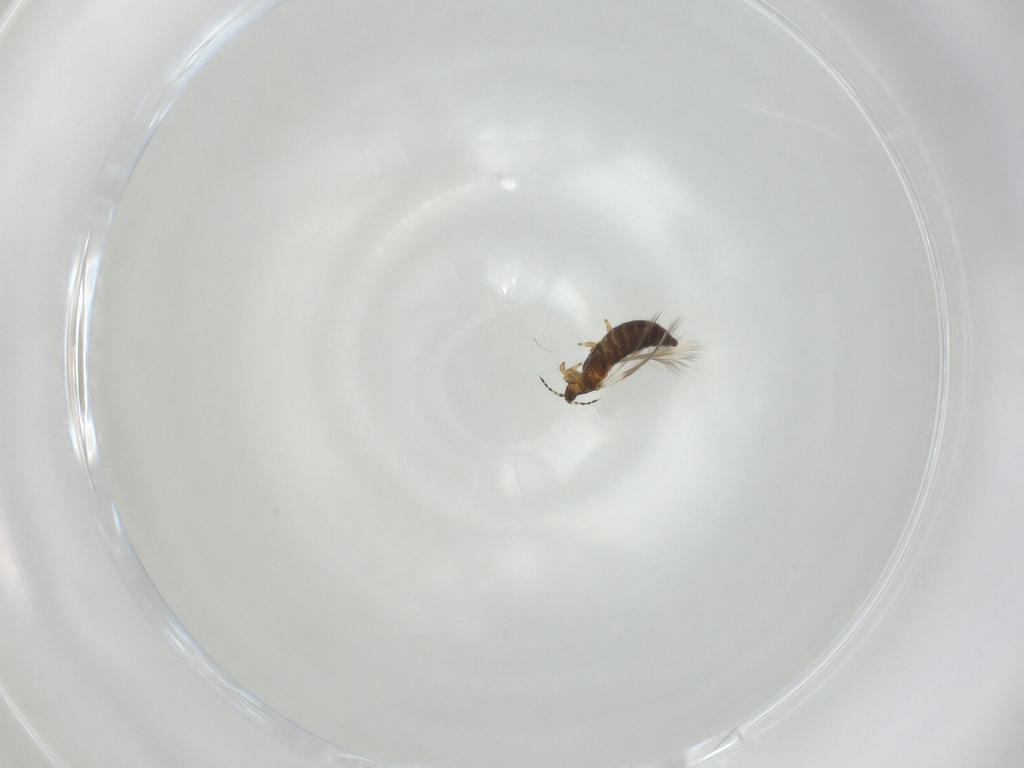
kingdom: Animalia
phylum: Arthropoda
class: Insecta
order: Thysanoptera
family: Thripidae
